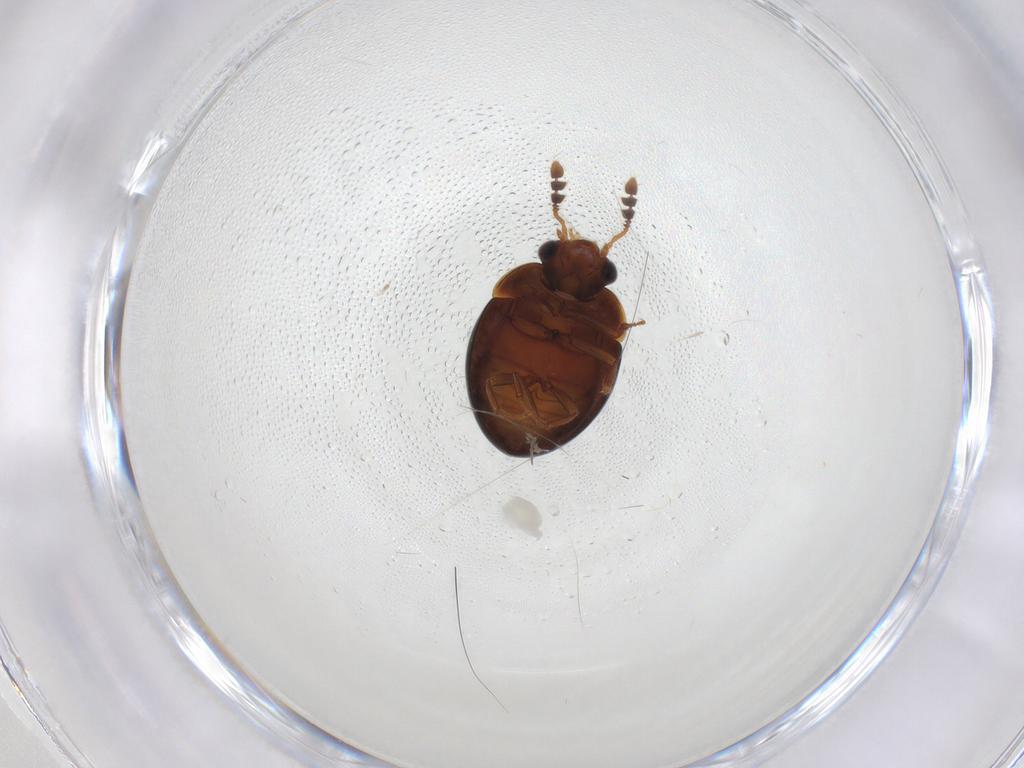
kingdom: Animalia
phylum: Arthropoda
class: Insecta
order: Coleoptera
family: Leiodidae
